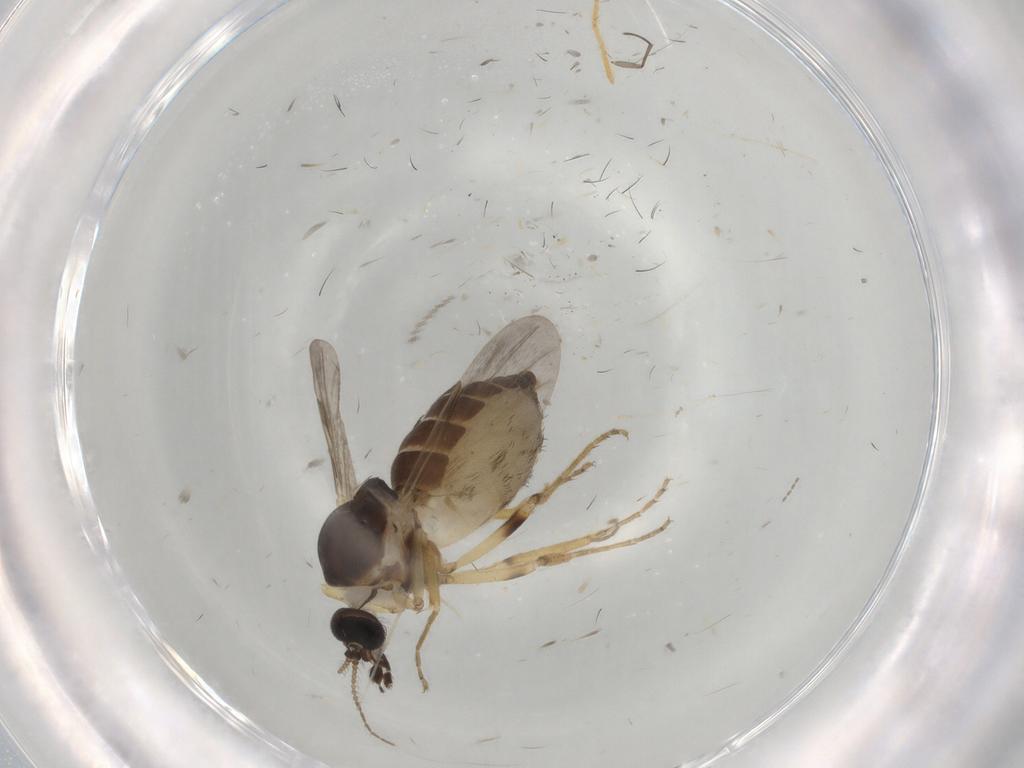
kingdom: Animalia
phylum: Arthropoda
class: Insecta
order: Diptera
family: Ceratopogonidae
